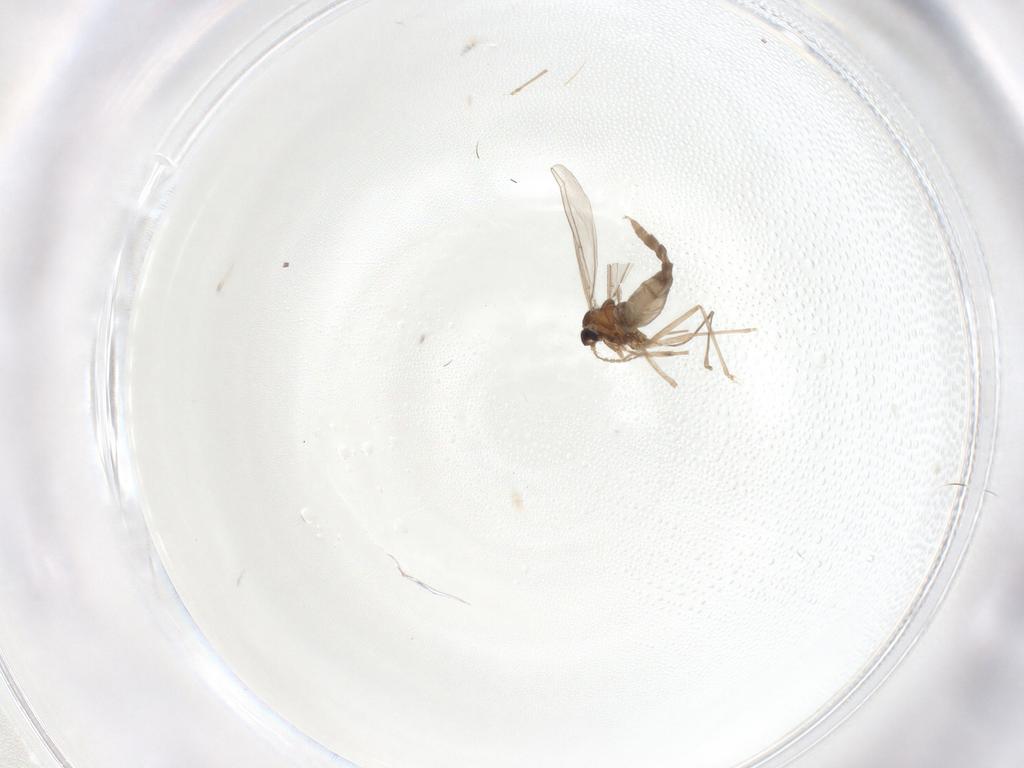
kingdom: Animalia
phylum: Arthropoda
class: Insecta
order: Diptera
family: Cecidomyiidae
